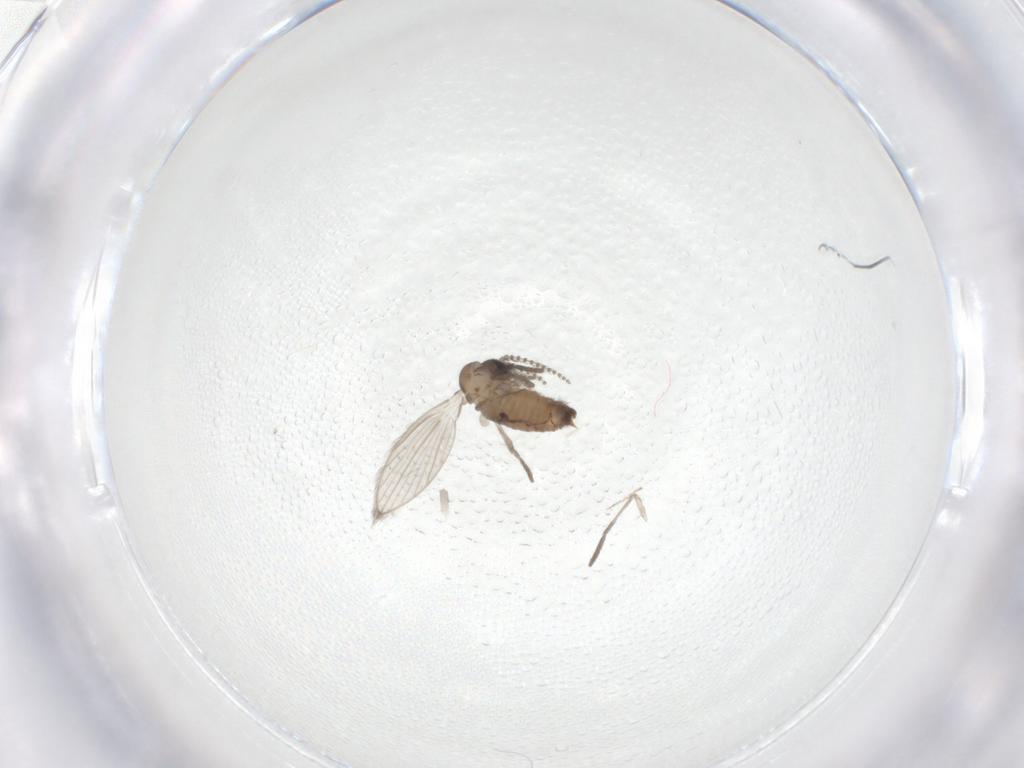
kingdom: Animalia
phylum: Arthropoda
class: Insecta
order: Diptera
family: Psychodidae
